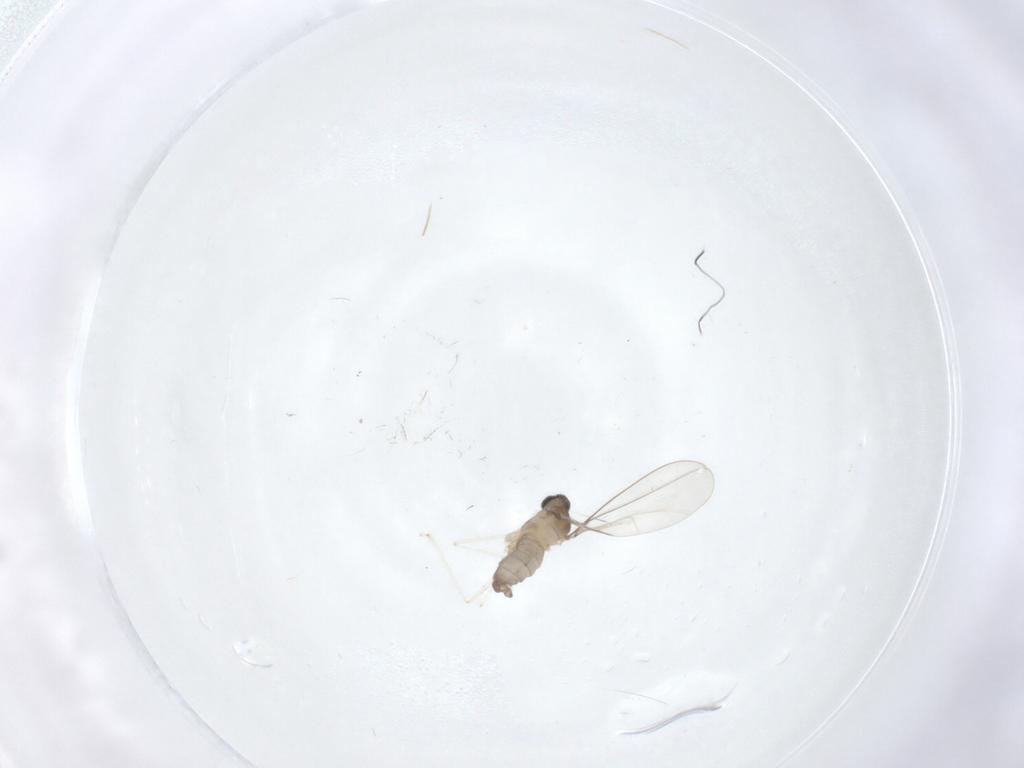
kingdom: Animalia
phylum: Arthropoda
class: Insecta
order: Diptera
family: Cecidomyiidae
